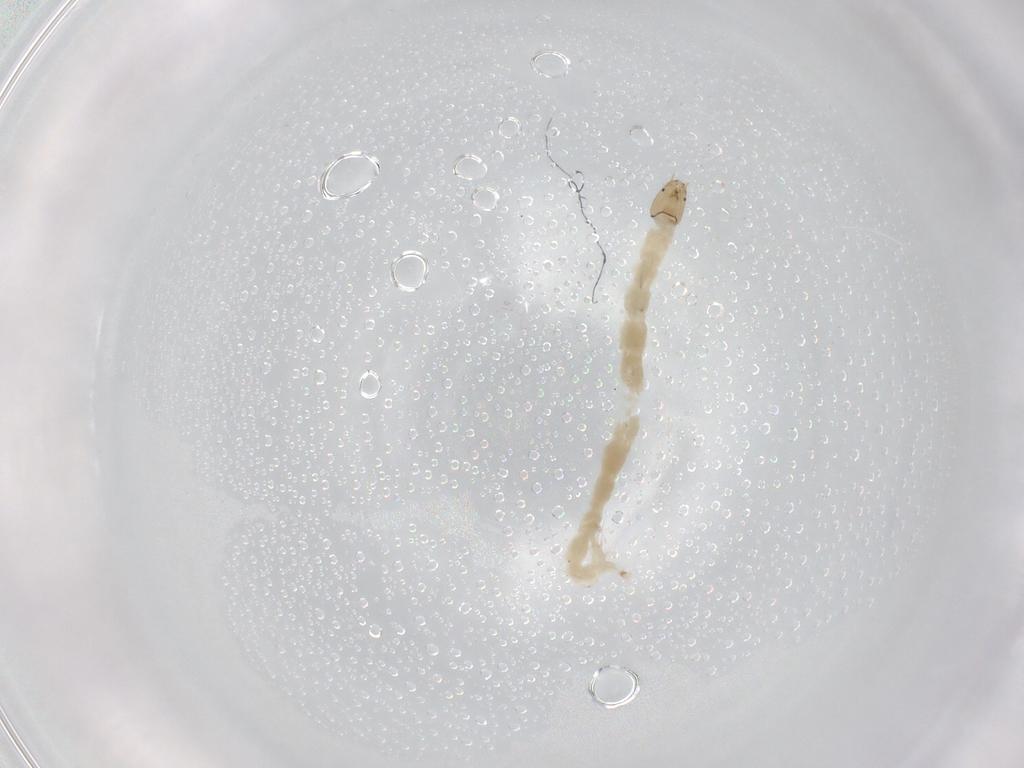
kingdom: Animalia
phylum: Arthropoda
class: Insecta
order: Diptera
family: Chironomidae
